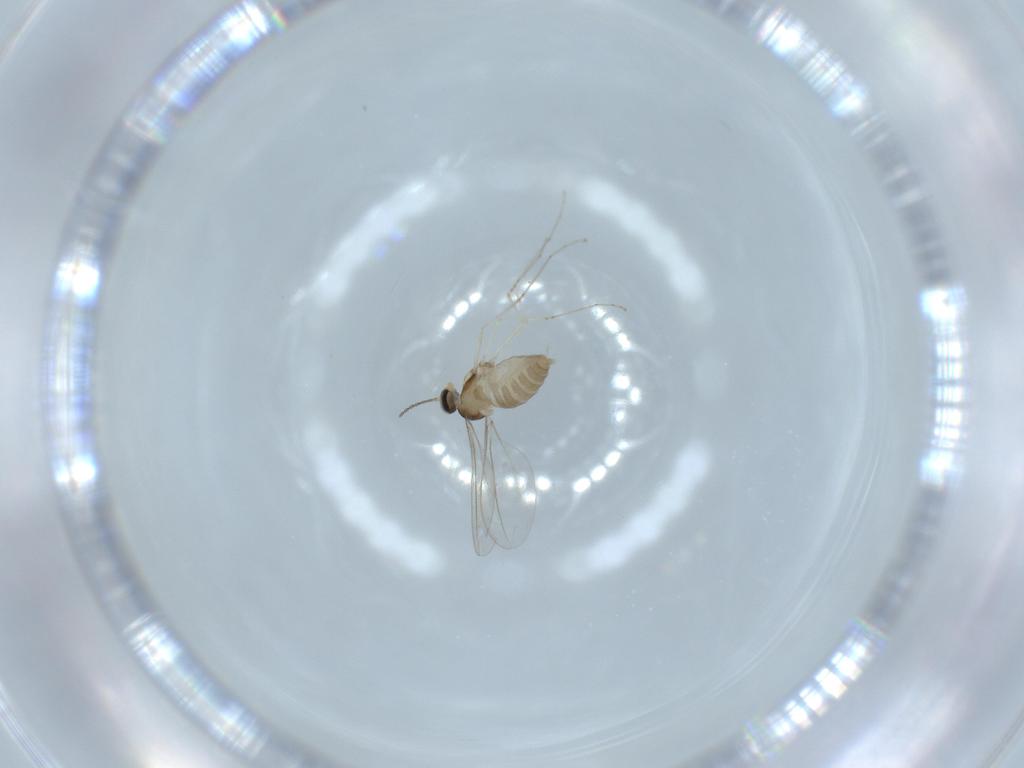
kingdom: Animalia
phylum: Arthropoda
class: Insecta
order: Diptera
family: Cecidomyiidae
